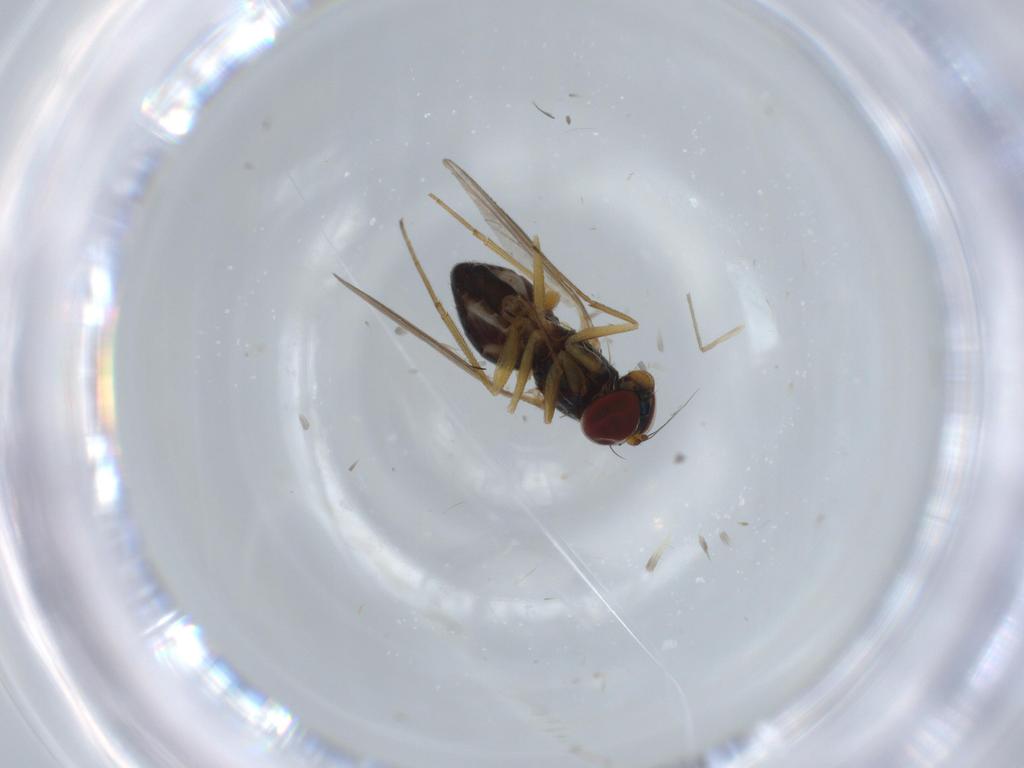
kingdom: Animalia
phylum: Arthropoda
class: Insecta
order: Diptera
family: Dolichopodidae
